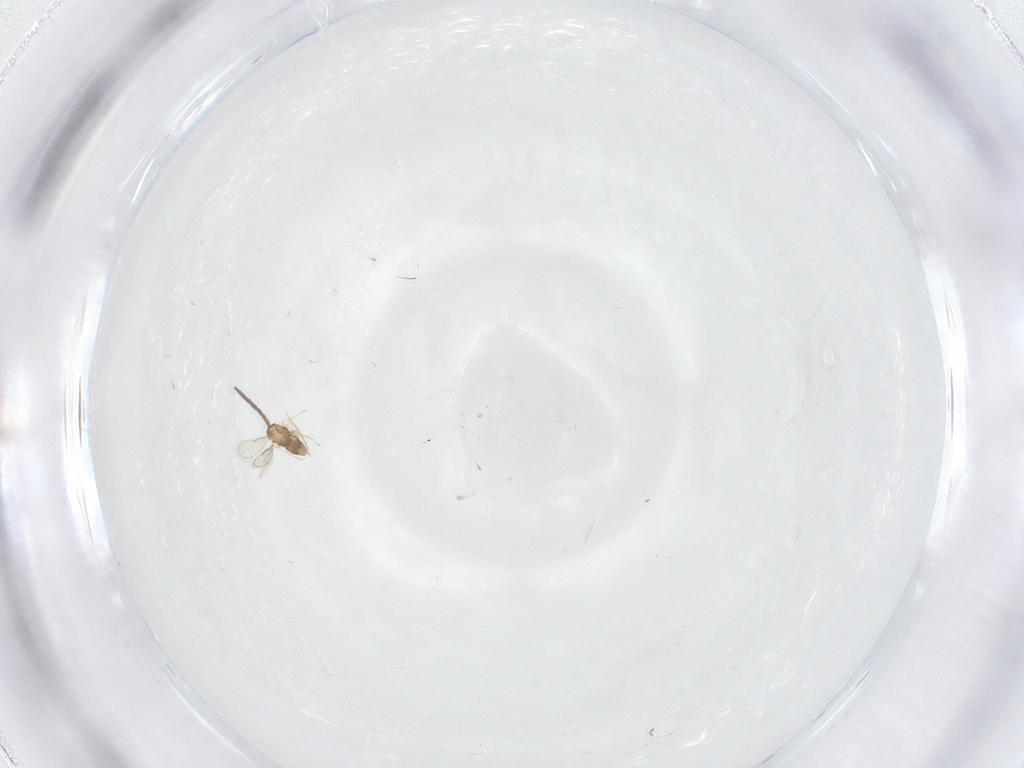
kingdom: Animalia
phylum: Arthropoda
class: Insecta
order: Hymenoptera
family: Aphelinidae
